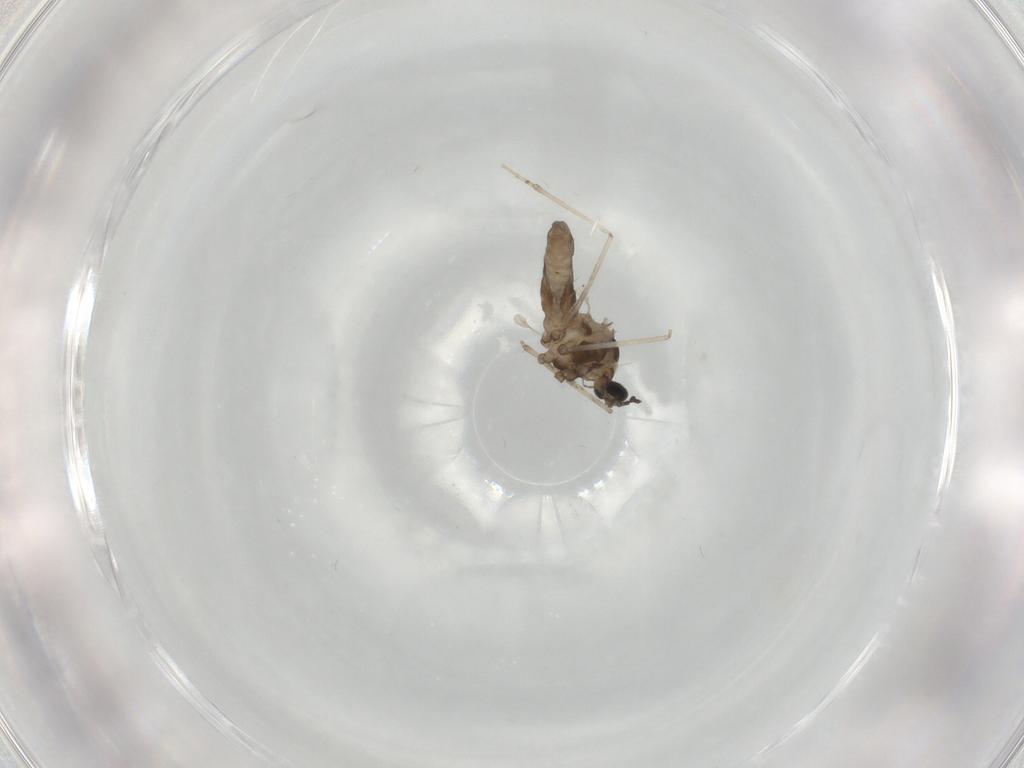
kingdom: Animalia
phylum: Arthropoda
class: Insecta
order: Diptera
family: Cecidomyiidae
